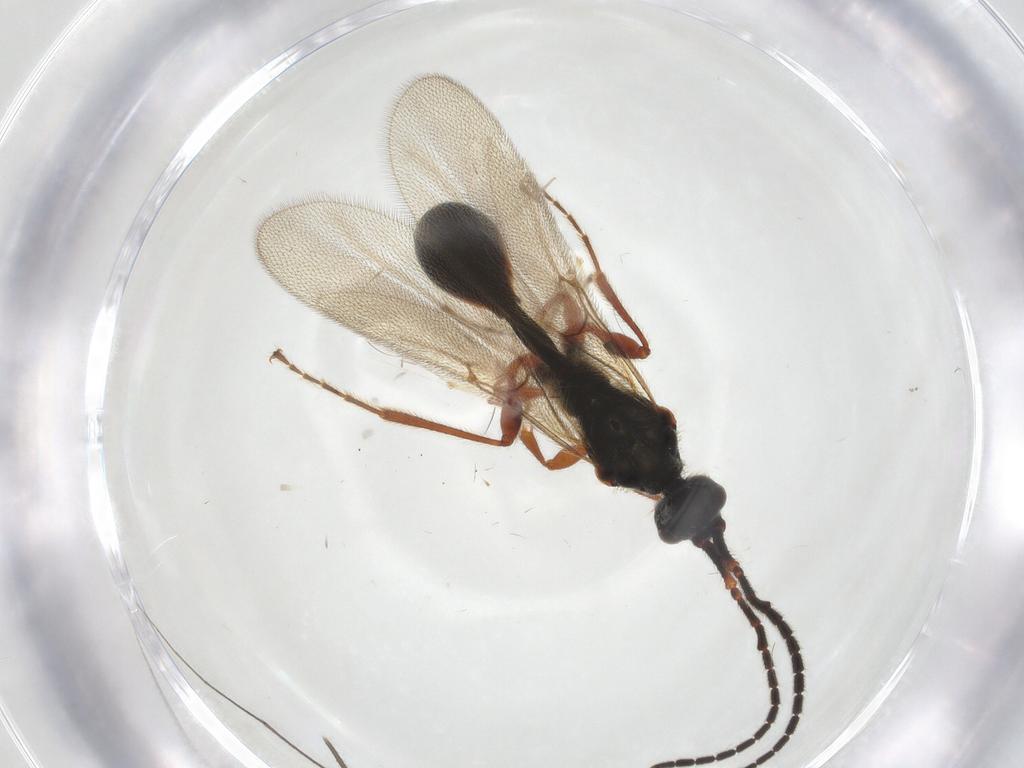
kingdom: Animalia
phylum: Arthropoda
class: Insecta
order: Hymenoptera
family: Diapriidae
